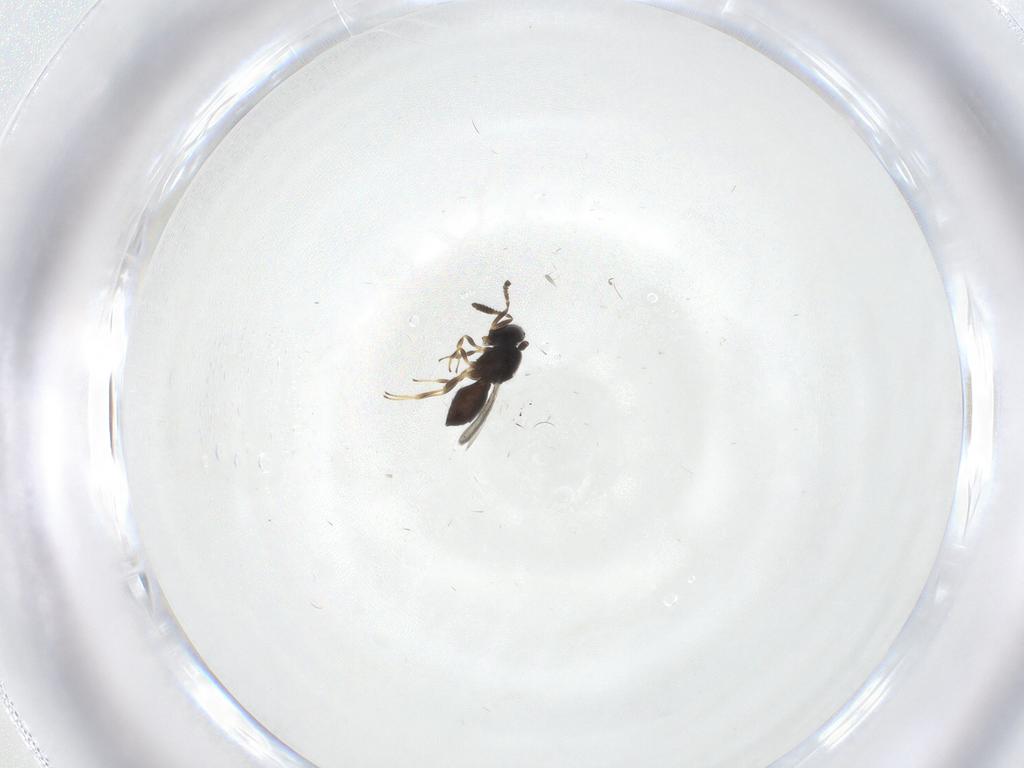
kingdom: Animalia
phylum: Arthropoda
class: Insecta
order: Hymenoptera
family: Scelionidae
